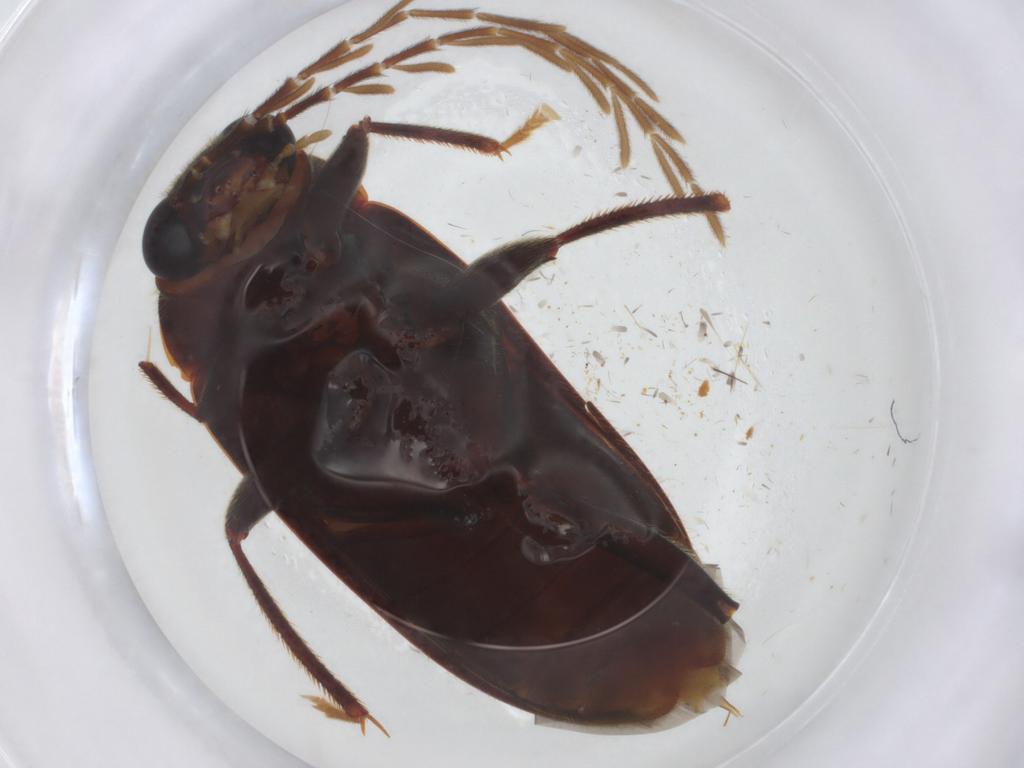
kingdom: Animalia
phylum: Arthropoda
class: Insecta
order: Coleoptera
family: Ptilodactylidae
